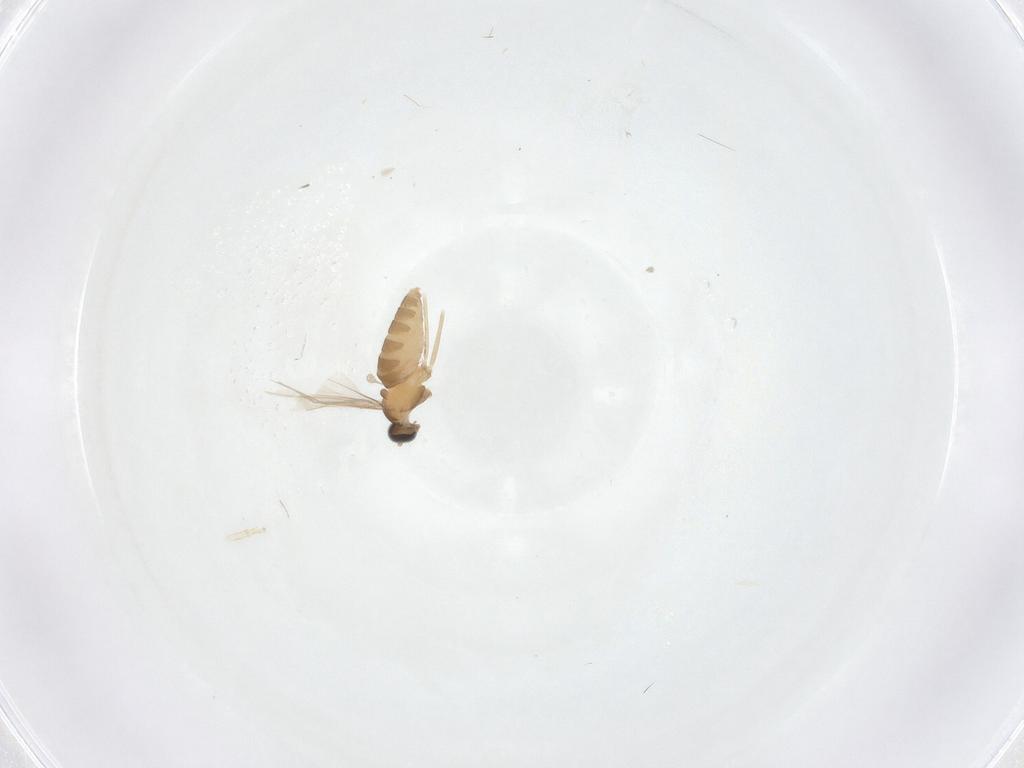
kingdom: Animalia
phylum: Arthropoda
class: Insecta
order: Diptera
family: Cecidomyiidae
